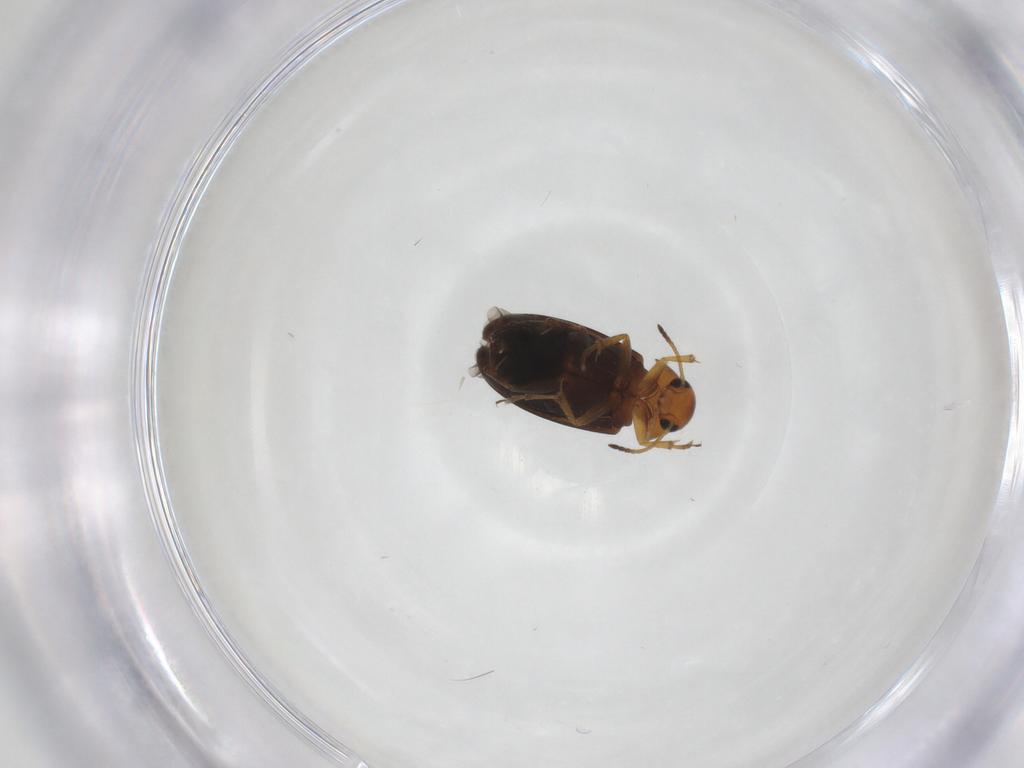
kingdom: Animalia
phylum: Arthropoda
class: Insecta
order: Coleoptera
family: Scraptiidae
